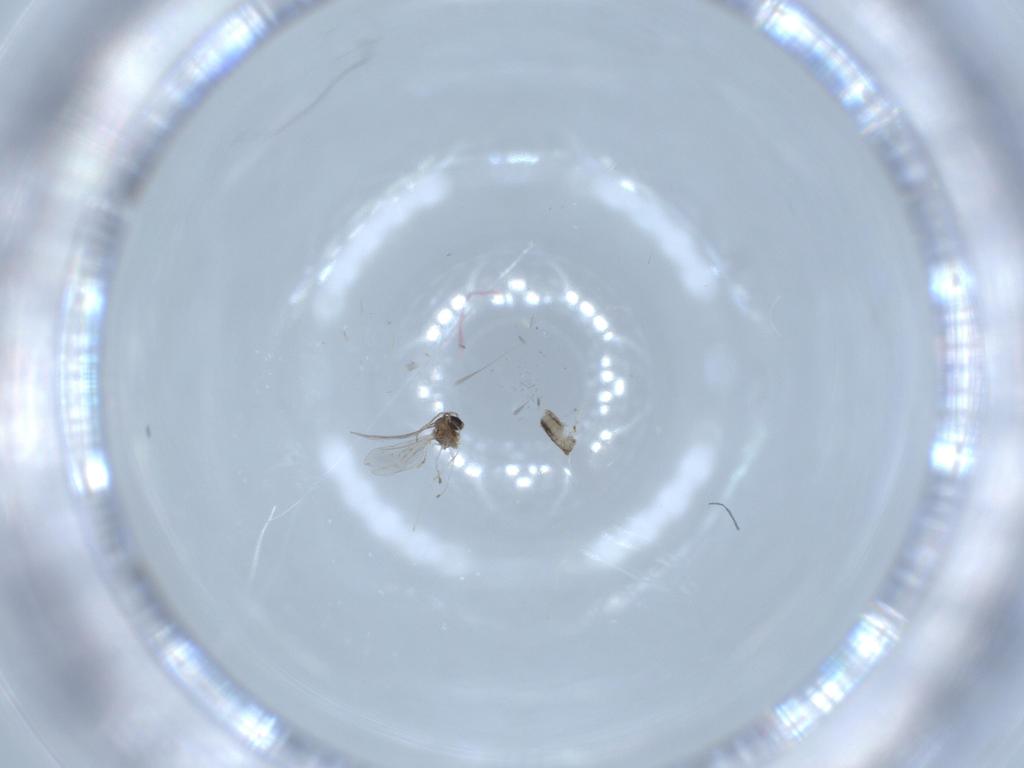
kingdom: Animalia
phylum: Arthropoda
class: Insecta
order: Diptera
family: Cecidomyiidae
